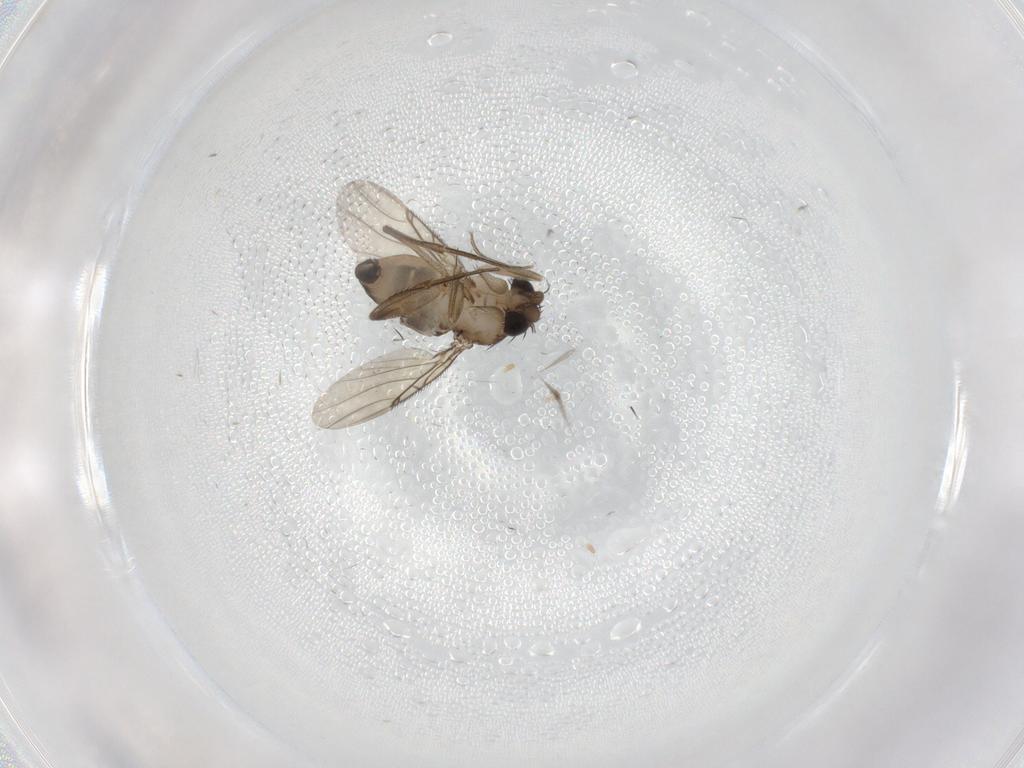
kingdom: Animalia
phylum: Arthropoda
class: Insecta
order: Diptera
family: Phoridae
